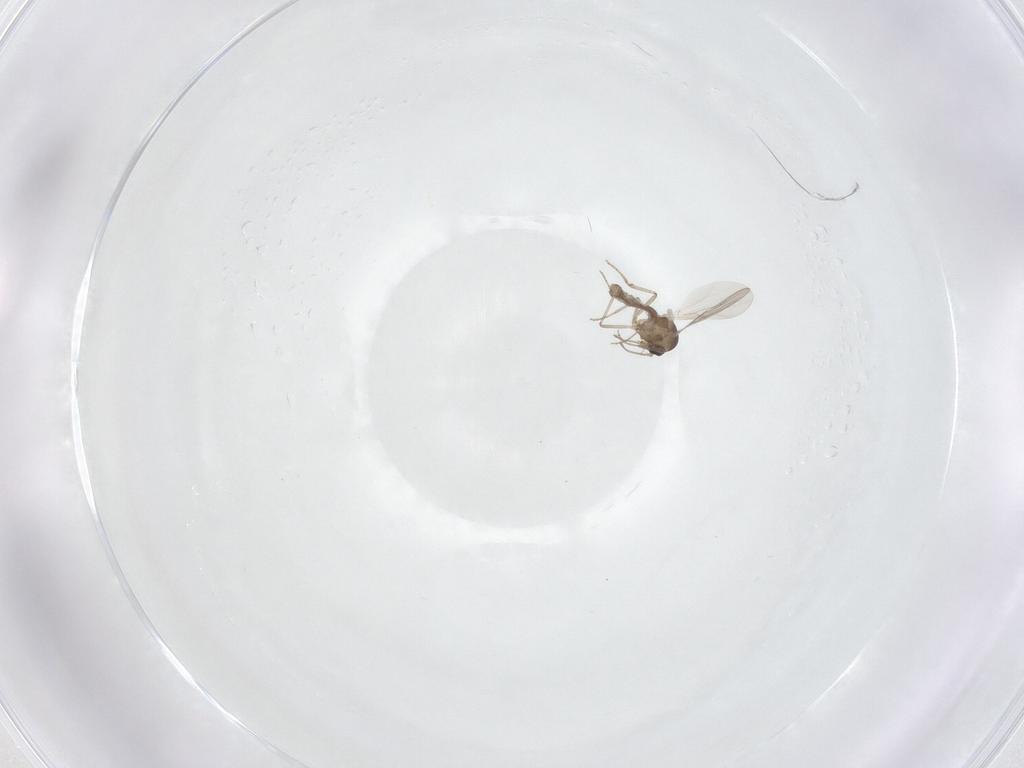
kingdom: Animalia
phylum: Arthropoda
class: Insecta
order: Diptera
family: Cecidomyiidae
